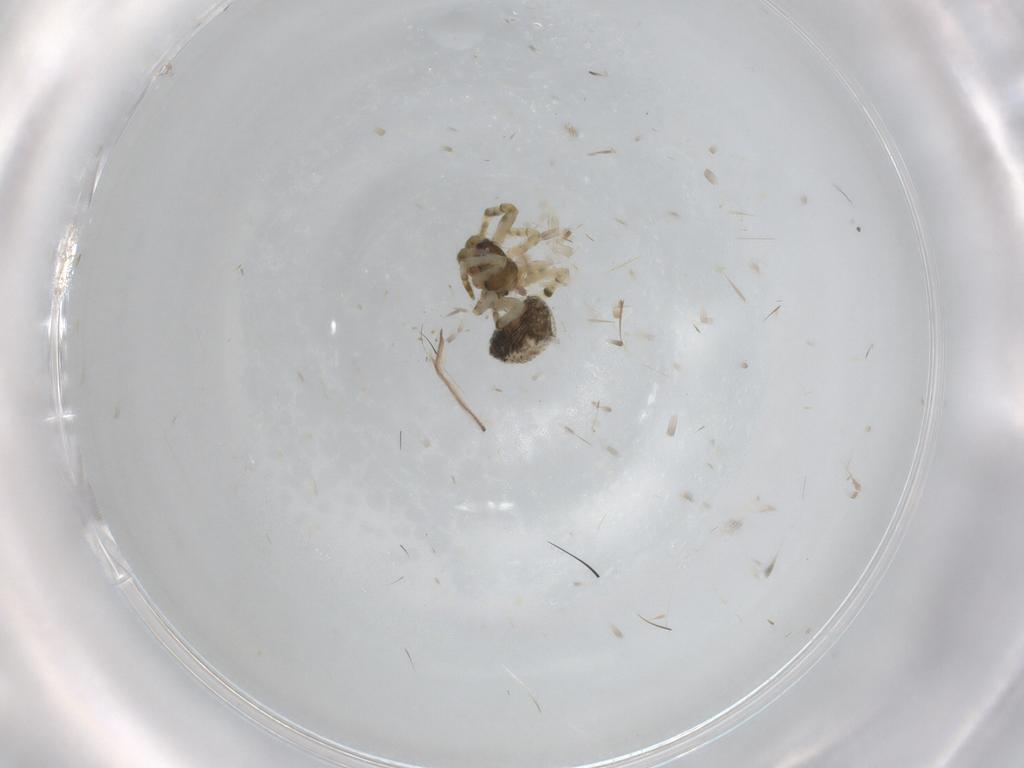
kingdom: Animalia
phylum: Arthropoda
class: Arachnida
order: Araneae
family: Theridiidae
